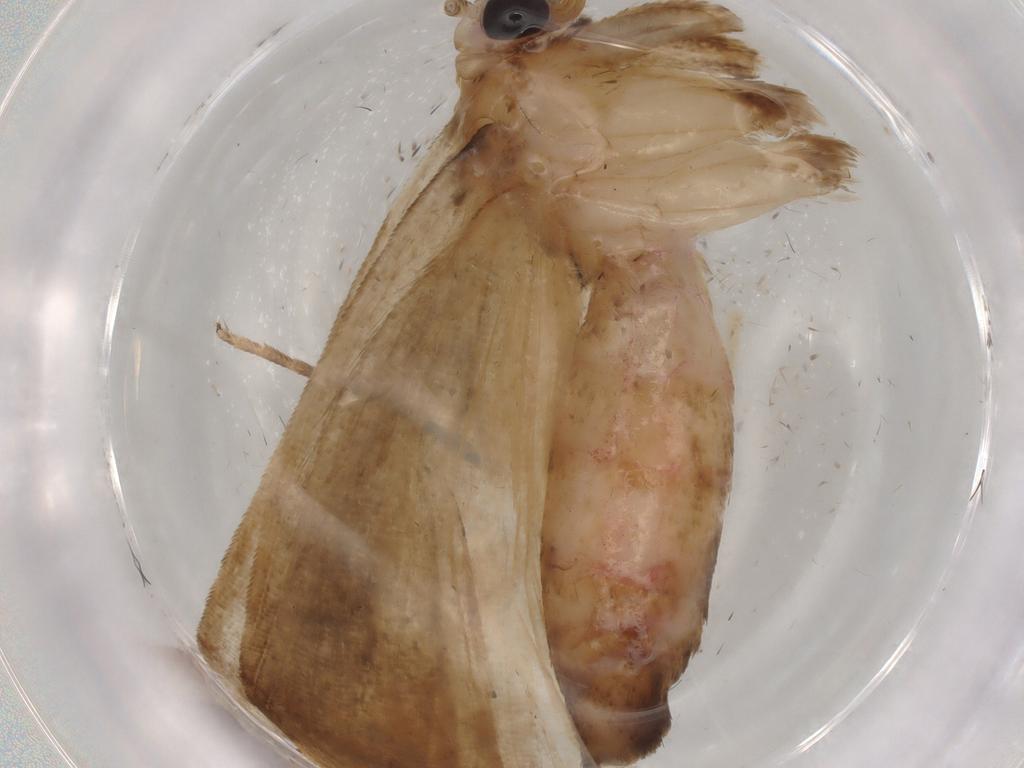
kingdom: Animalia
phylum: Arthropoda
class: Insecta
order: Lepidoptera
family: Noctuidae
